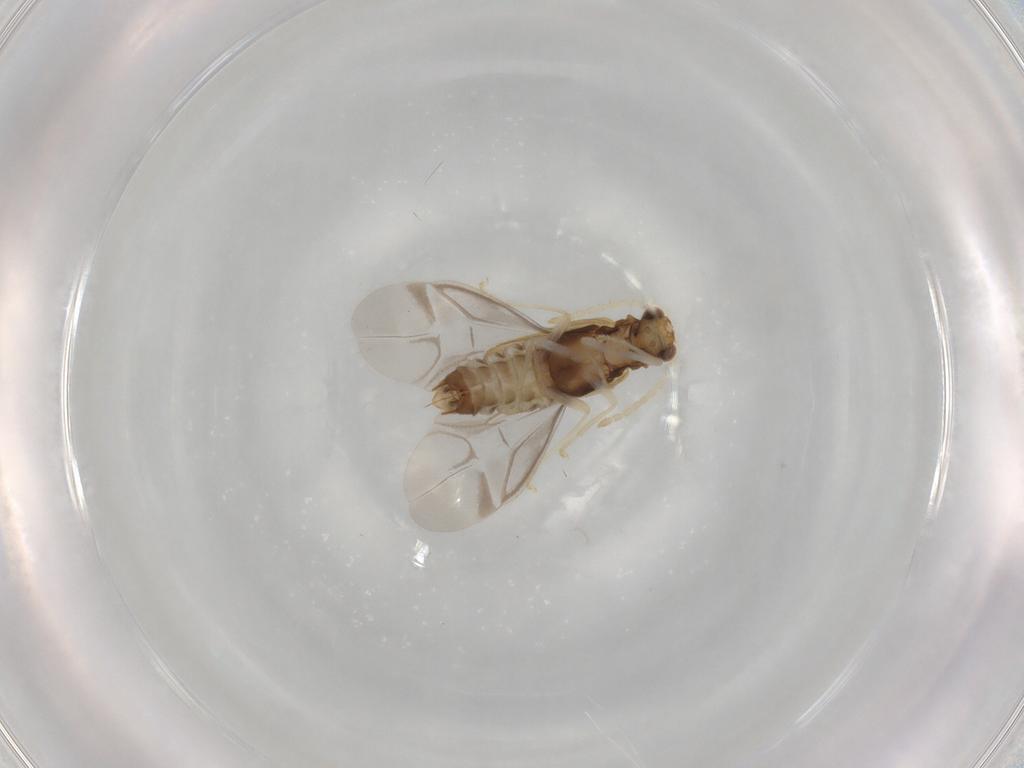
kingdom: Animalia
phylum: Arthropoda
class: Insecta
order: Coleoptera
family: Cantharidae
